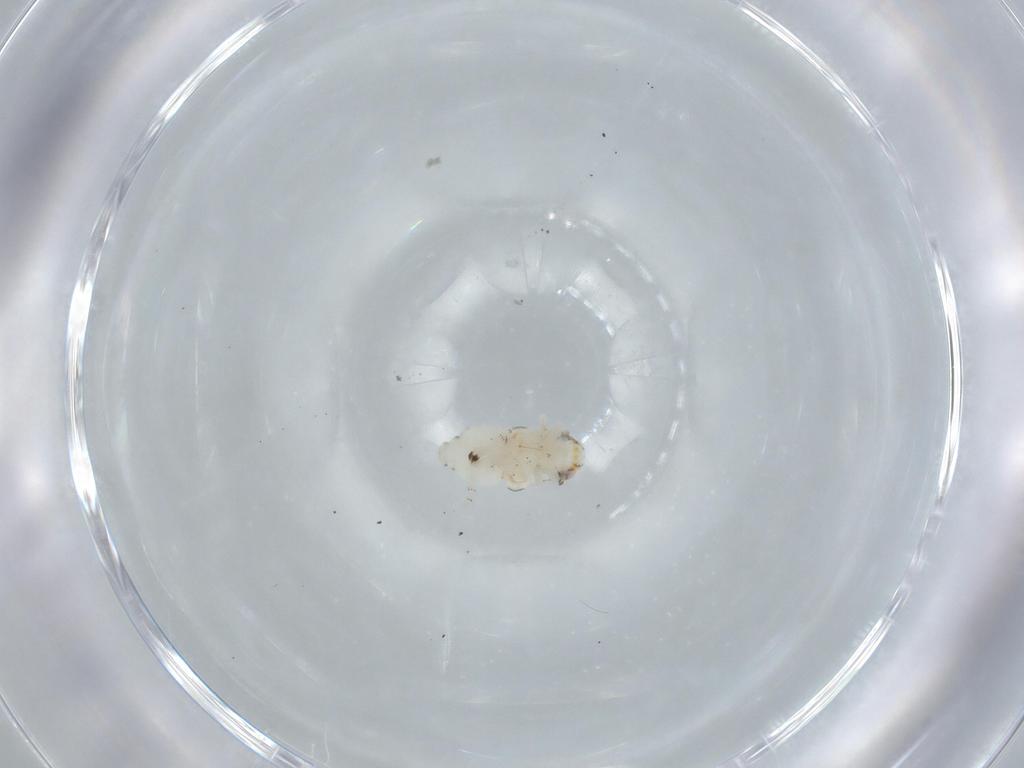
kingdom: Animalia
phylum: Arthropoda
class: Insecta
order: Hemiptera
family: Nogodinidae
